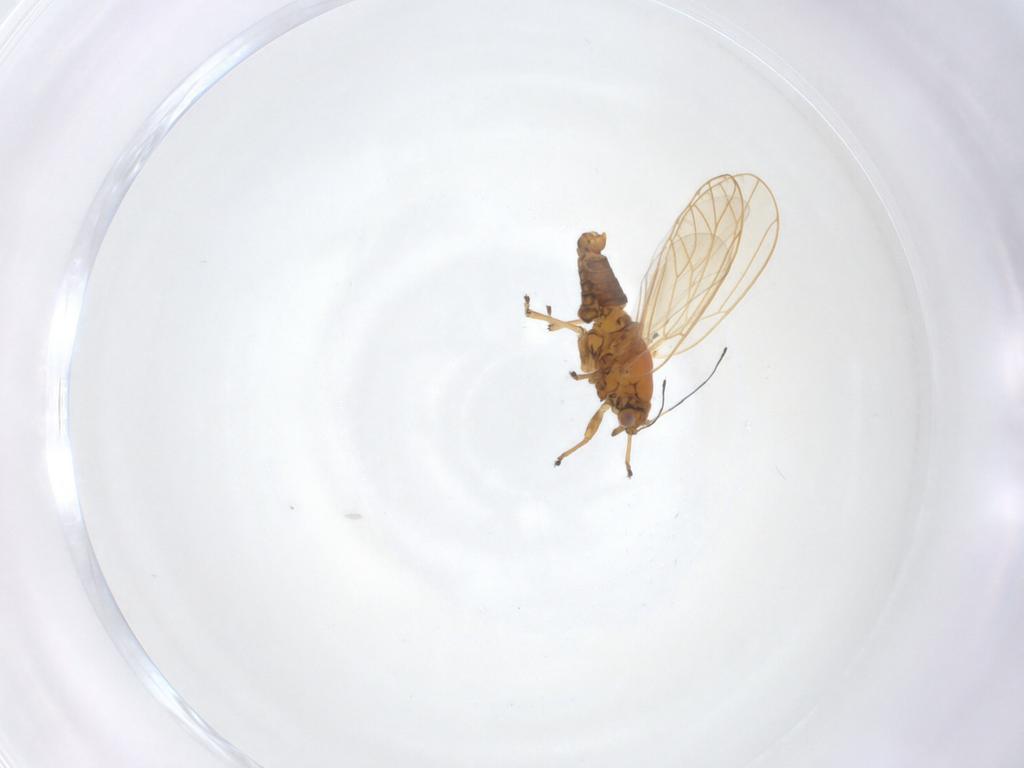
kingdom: Animalia
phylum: Arthropoda
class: Insecta
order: Hemiptera
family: Triozidae
